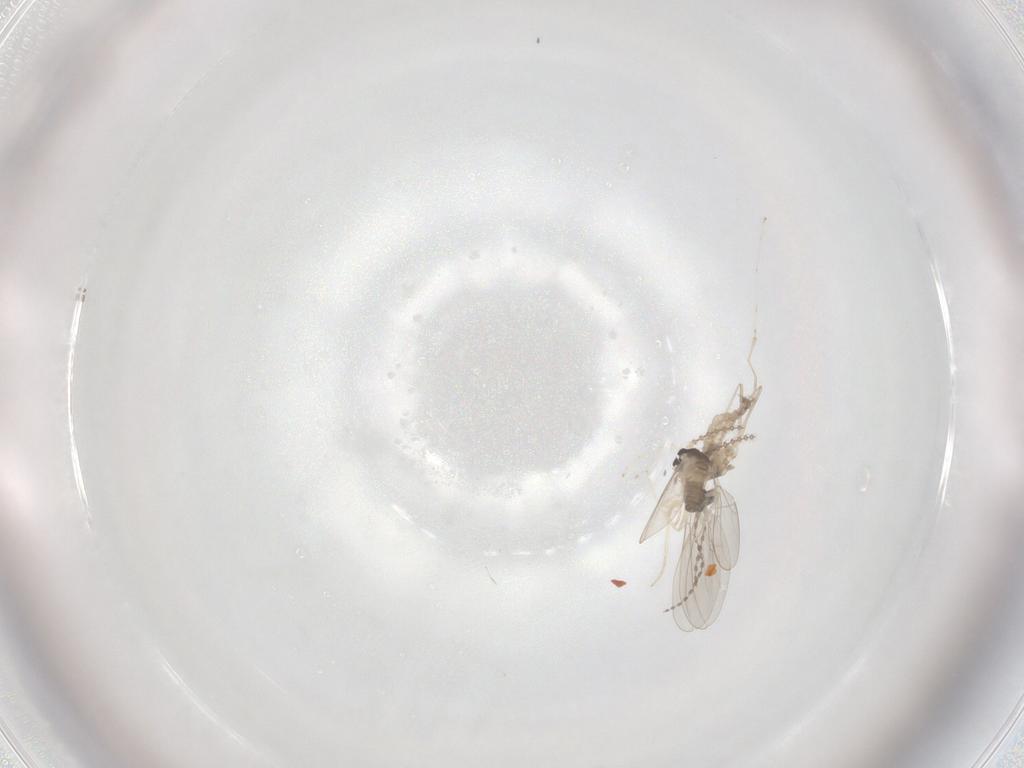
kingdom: Animalia
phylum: Arthropoda
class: Insecta
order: Diptera
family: Cecidomyiidae
